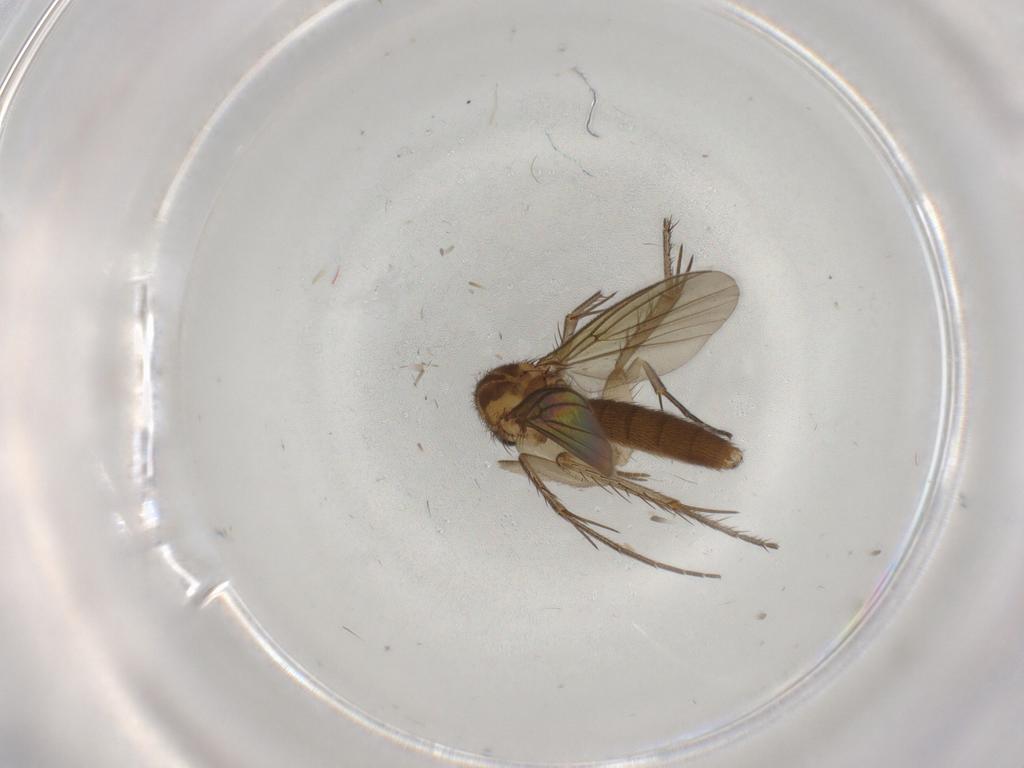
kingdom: Animalia
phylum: Arthropoda
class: Insecta
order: Diptera
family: Mycetophilidae
